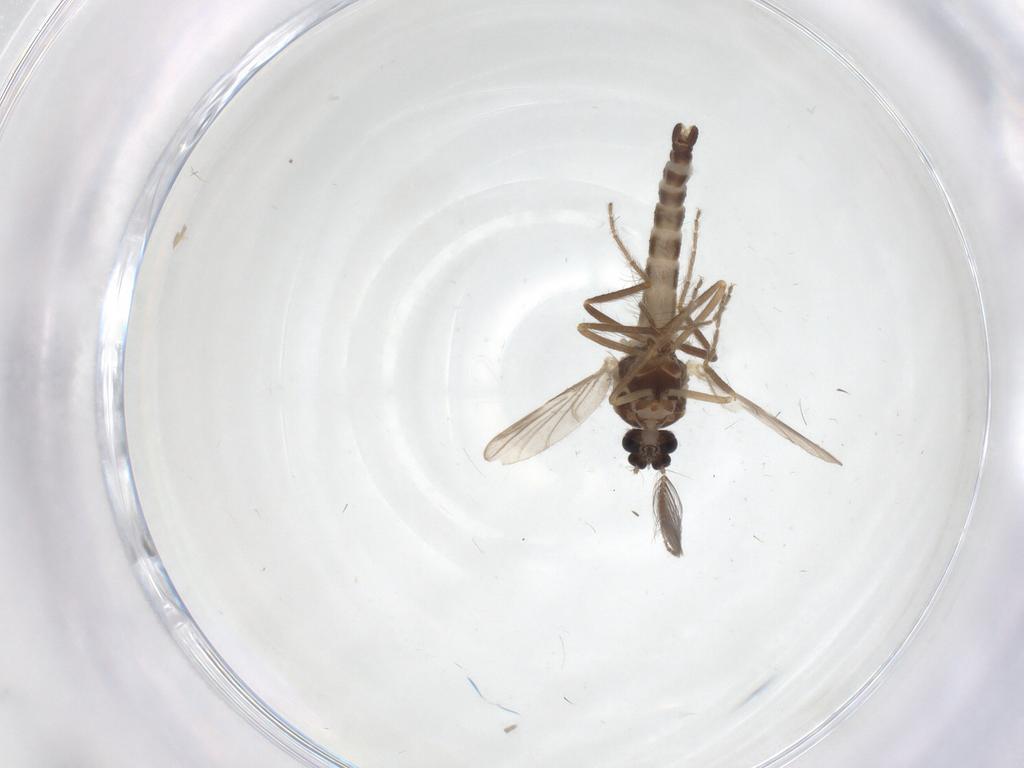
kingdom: Animalia
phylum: Arthropoda
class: Insecta
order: Diptera
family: Ceratopogonidae
